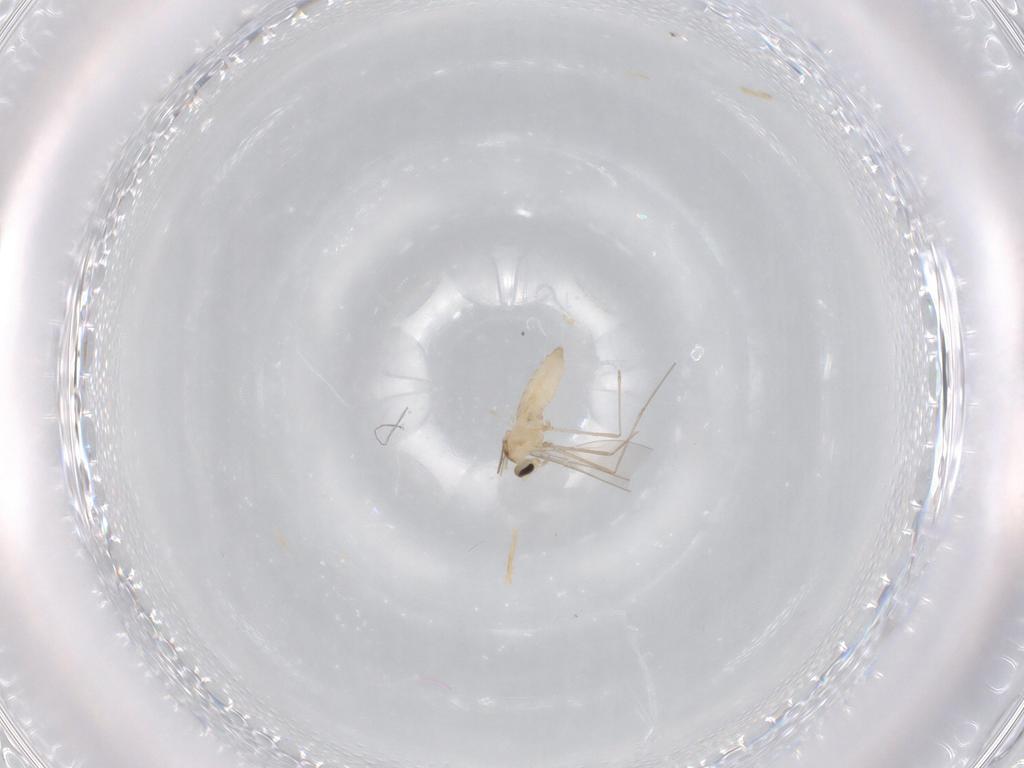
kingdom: Animalia
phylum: Arthropoda
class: Insecta
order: Diptera
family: Cecidomyiidae
